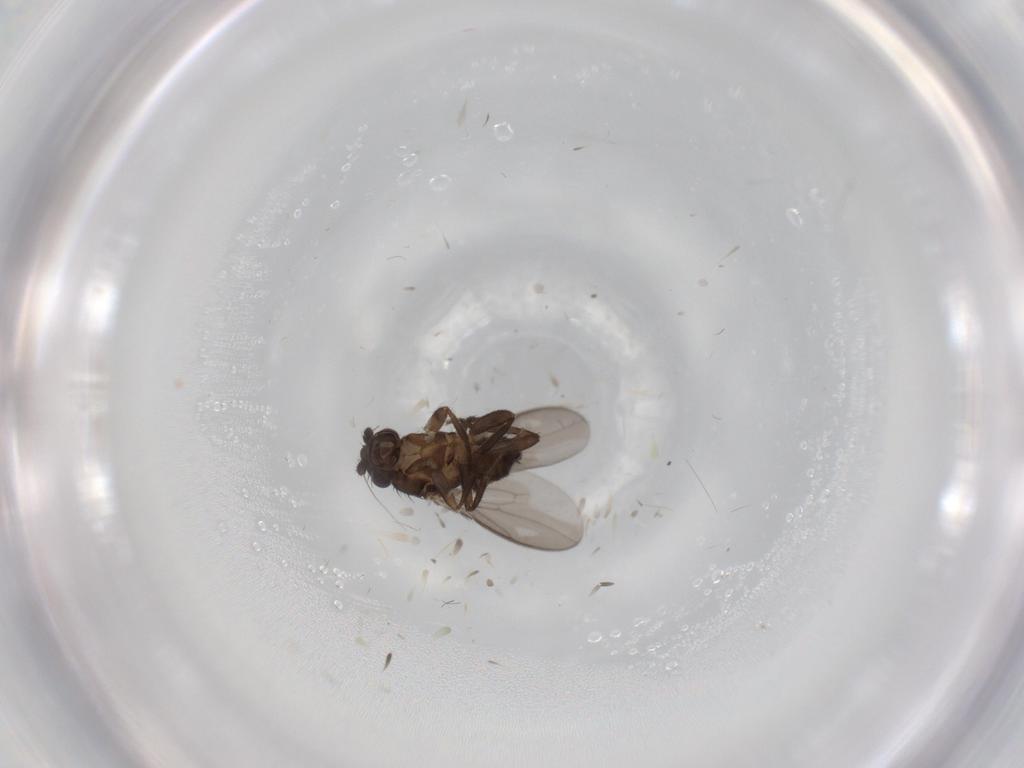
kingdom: Animalia
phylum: Arthropoda
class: Insecta
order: Diptera
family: Sphaeroceridae
